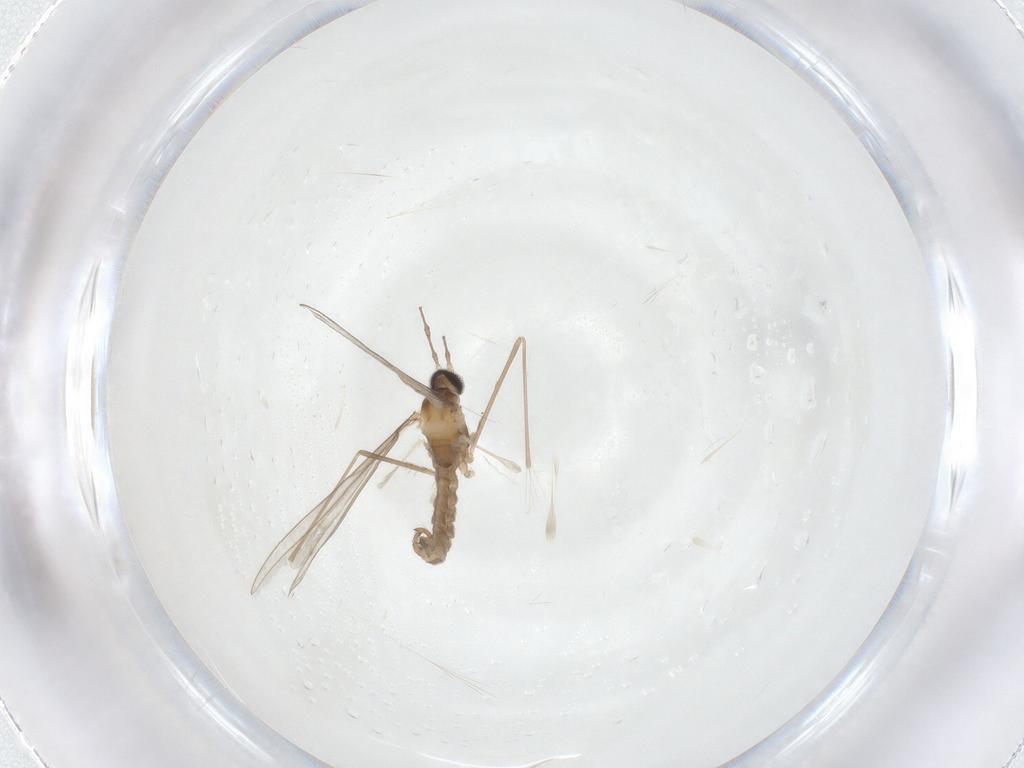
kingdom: Animalia
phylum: Arthropoda
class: Insecta
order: Diptera
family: Cecidomyiidae
